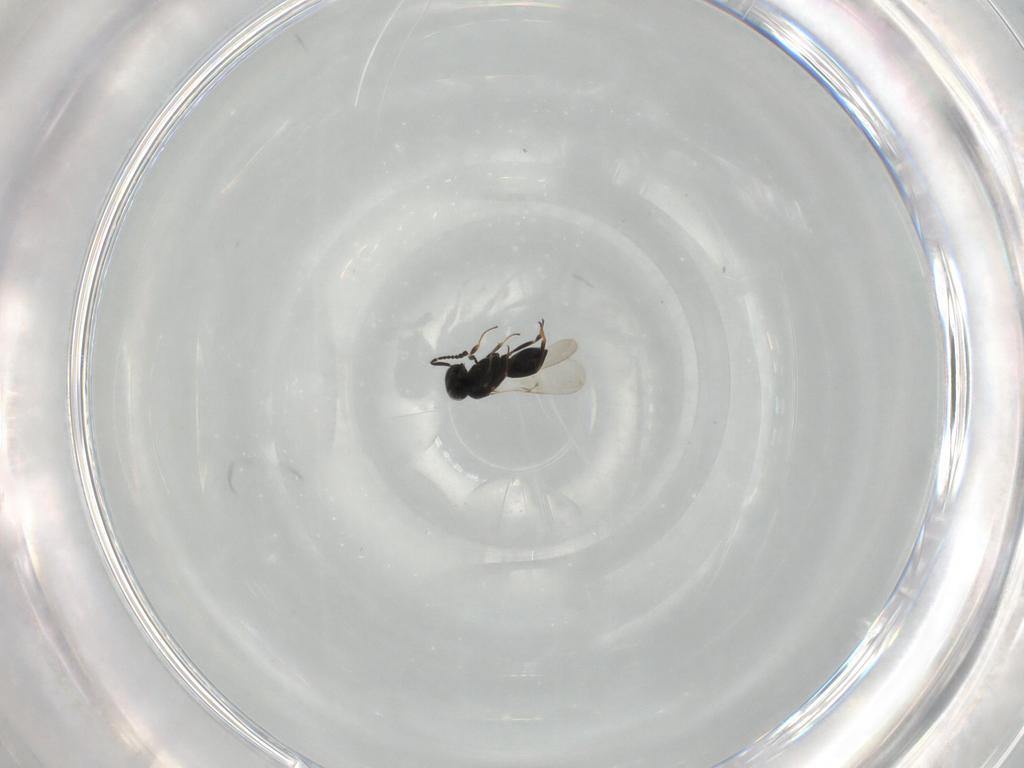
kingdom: Animalia
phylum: Arthropoda
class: Insecta
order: Hymenoptera
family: Scelionidae
